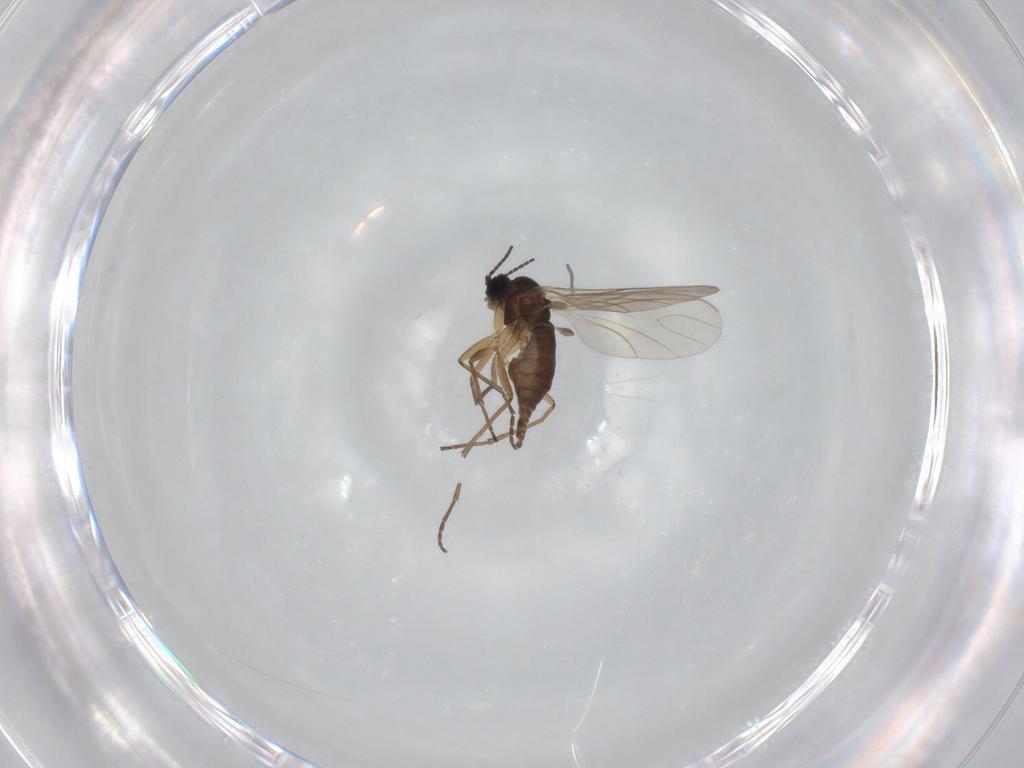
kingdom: Animalia
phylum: Arthropoda
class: Insecta
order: Diptera
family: Sciaridae
